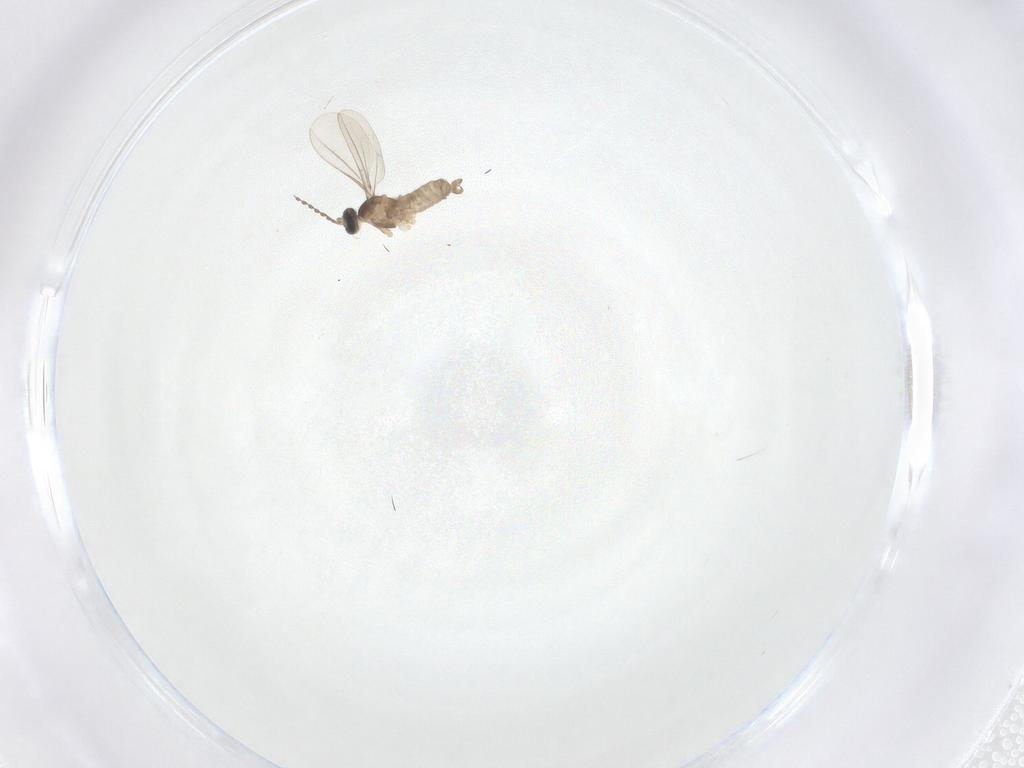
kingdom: Animalia
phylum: Arthropoda
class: Insecta
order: Diptera
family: Cecidomyiidae
